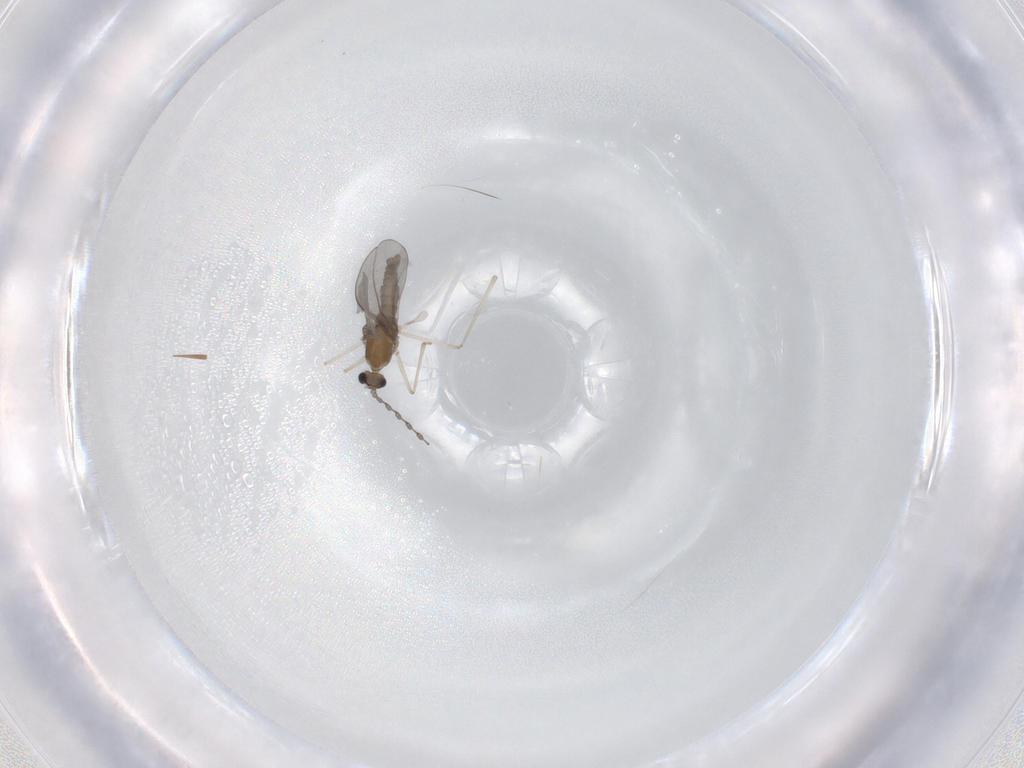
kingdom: Animalia
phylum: Arthropoda
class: Insecta
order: Diptera
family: Cecidomyiidae
